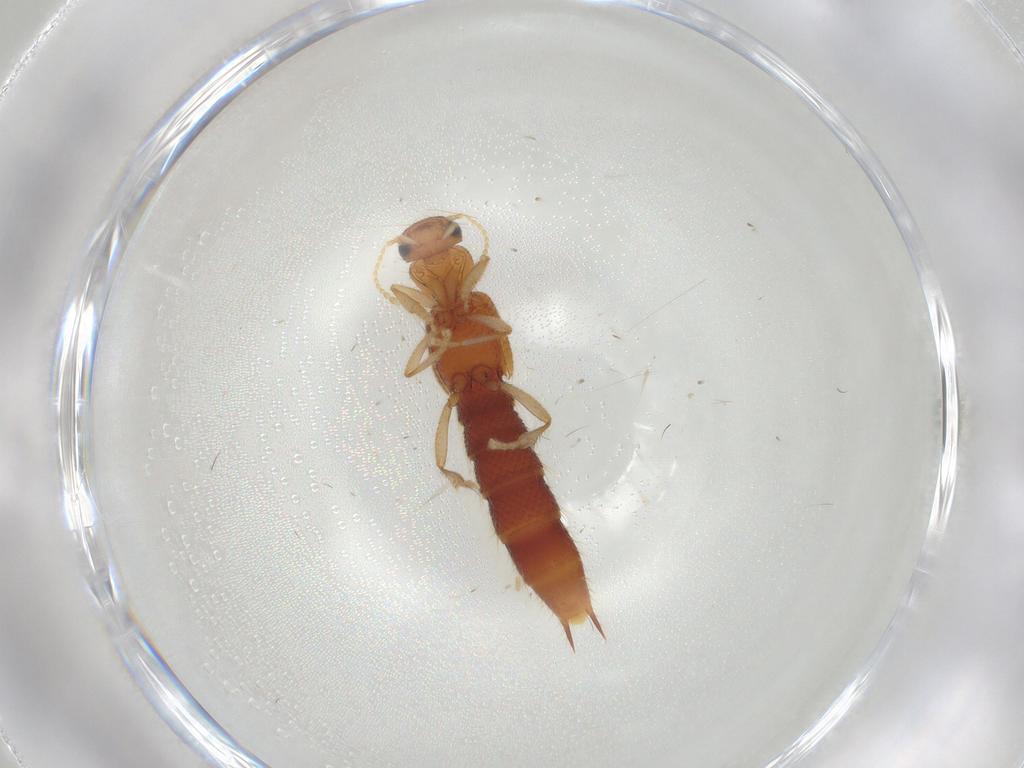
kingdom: Animalia
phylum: Arthropoda
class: Insecta
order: Coleoptera
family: Staphylinidae
